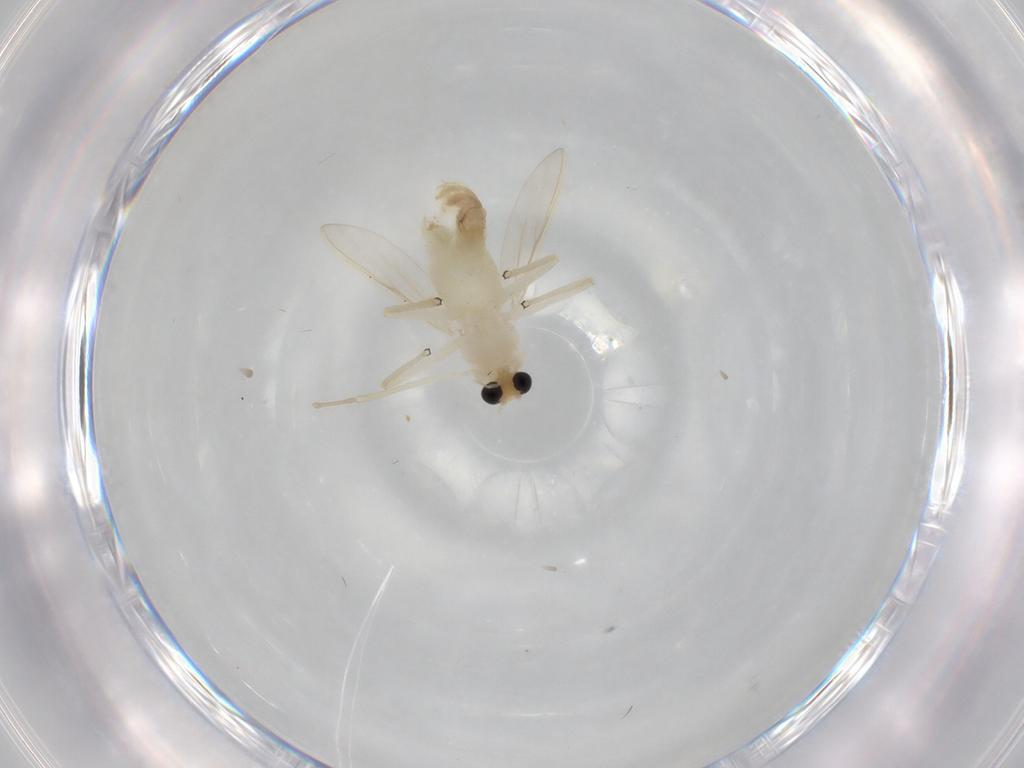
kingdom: Animalia
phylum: Arthropoda
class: Insecta
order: Diptera
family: Chironomidae
